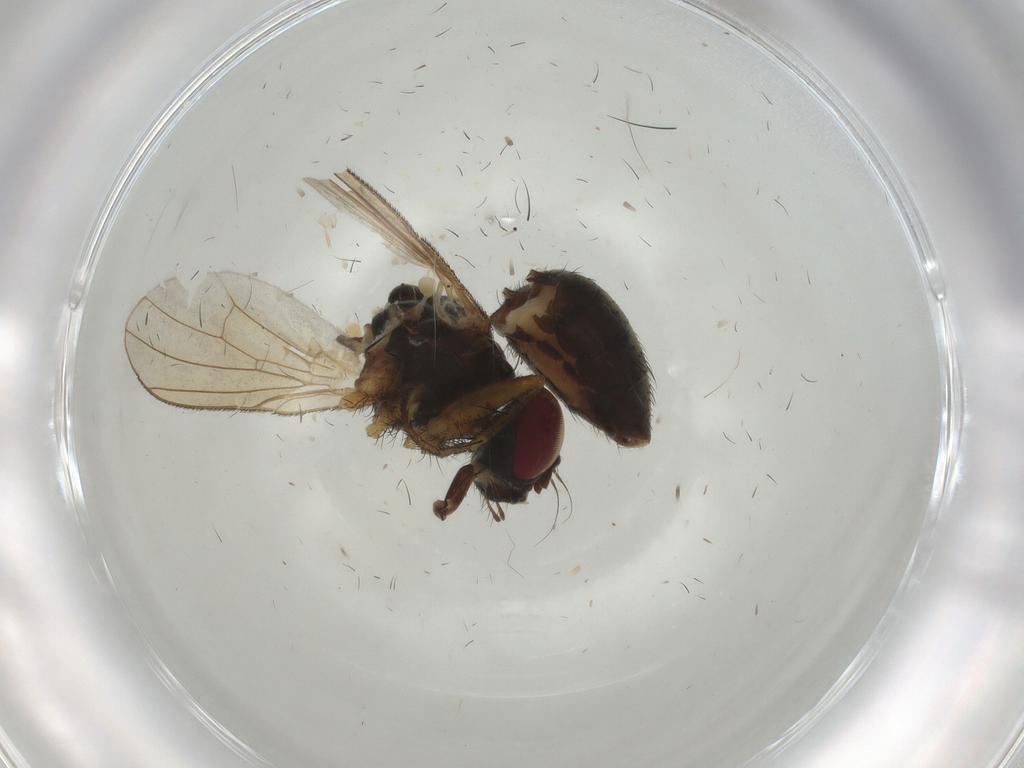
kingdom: Animalia
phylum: Arthropoda
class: Insecta
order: Diptera
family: Muscidae
